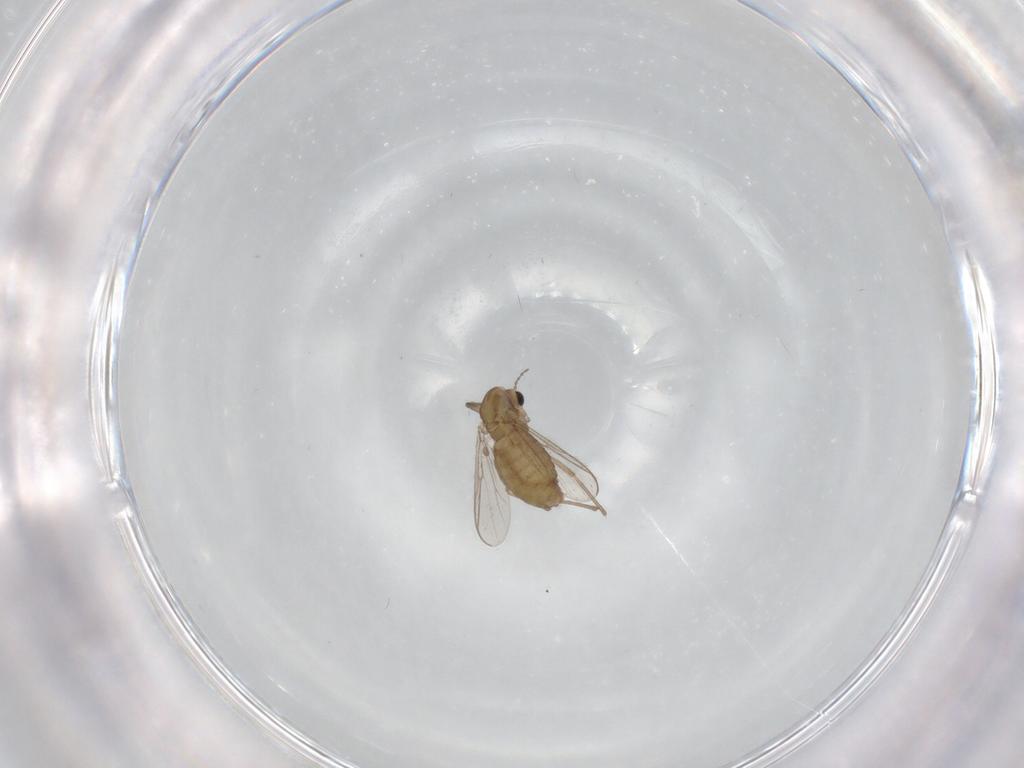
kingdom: Animalia
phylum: Arthropoda
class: Insecta
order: Diptera
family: Chironomidae
